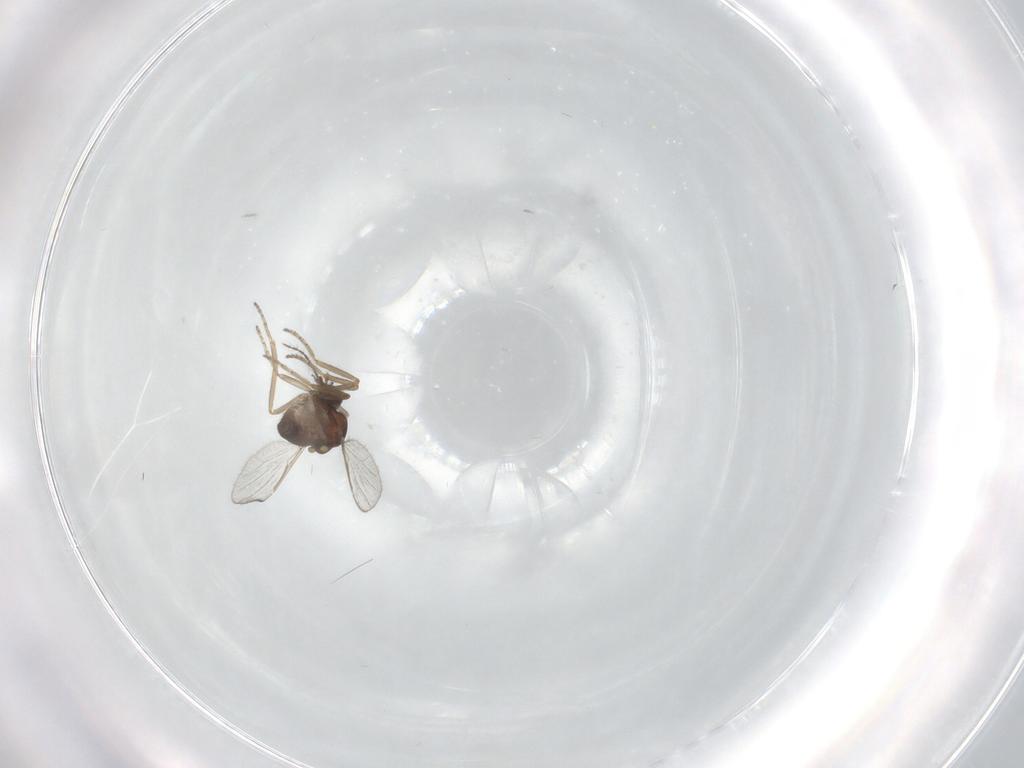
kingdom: Animalia
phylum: Arthropoda
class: Insecta
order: Diptera
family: Ceratopogonidae
